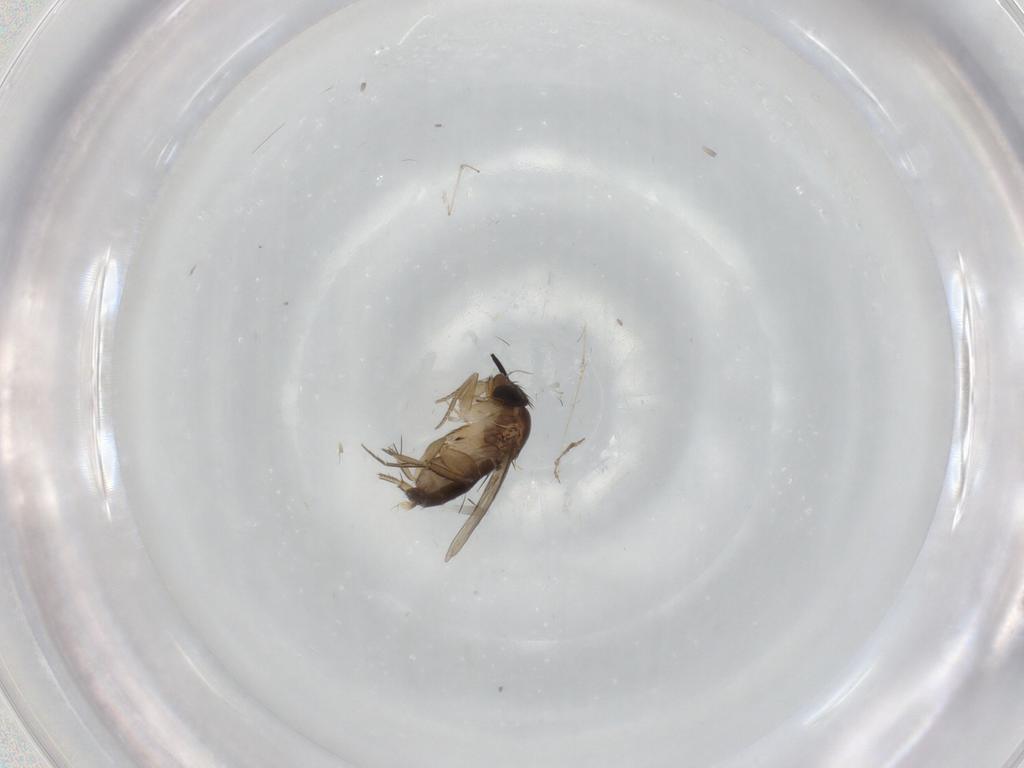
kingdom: Animalia
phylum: Arthropoda
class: Insecta
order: Diptera
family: Phoridae
